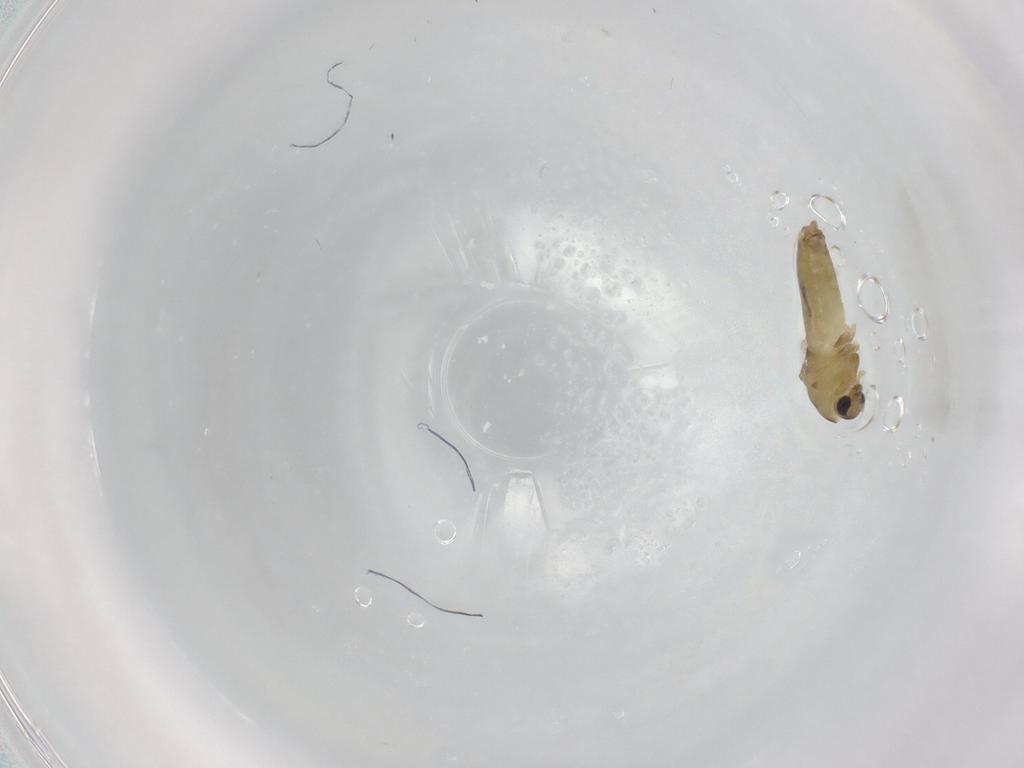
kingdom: Animalia
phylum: Arthropoda
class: Insecta
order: Diptera
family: Chironomidae
